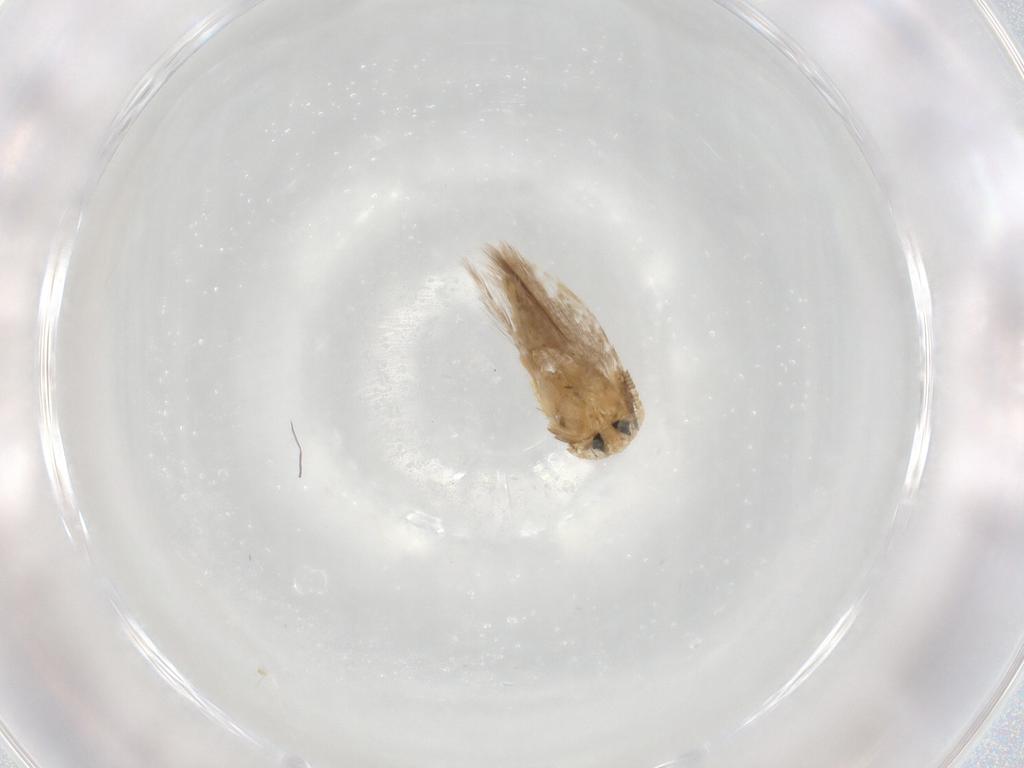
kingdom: Animalia
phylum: Arthropoda
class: Insecta
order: Lepidoptera
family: Opostegidae
